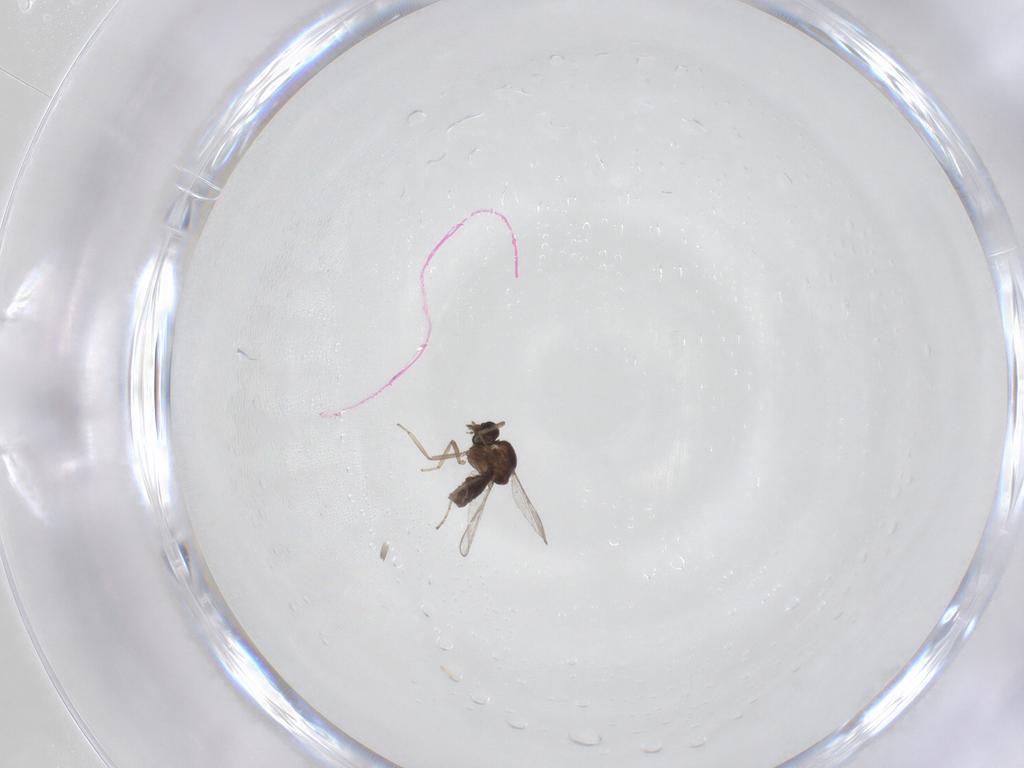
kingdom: Animalia
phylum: Arthropoda
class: Insecta
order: Diptera
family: Ceratopogonidae
